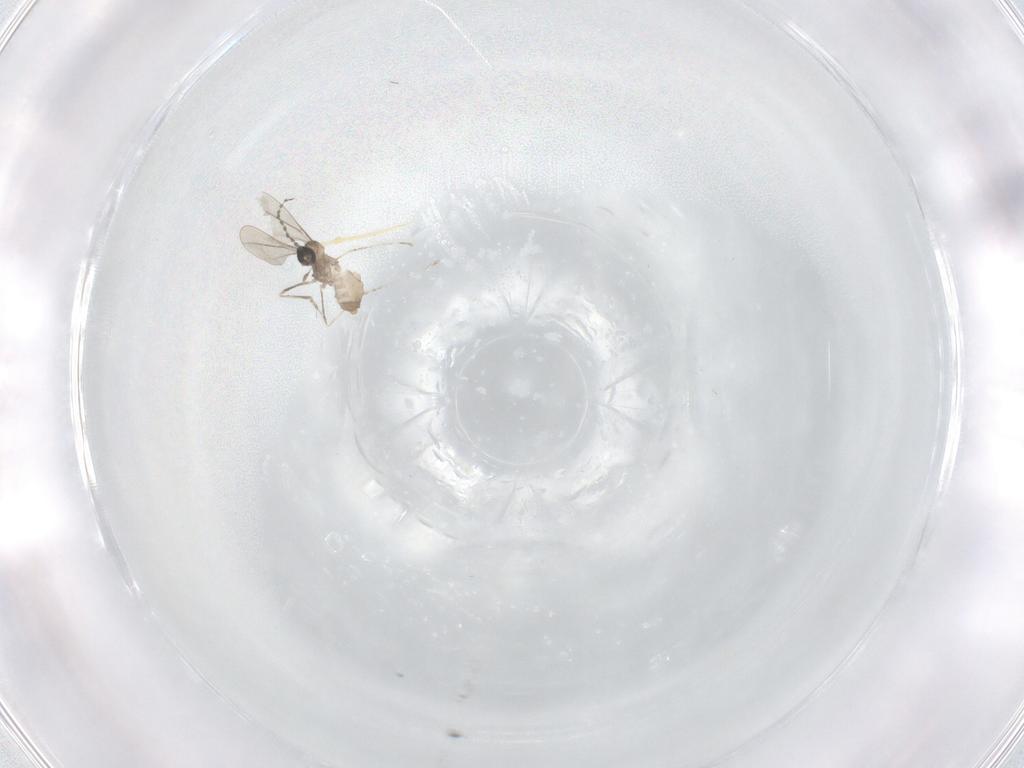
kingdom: Animalia
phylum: Arthropoda
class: Insecta
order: Diptera
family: Cecidomyiidae
